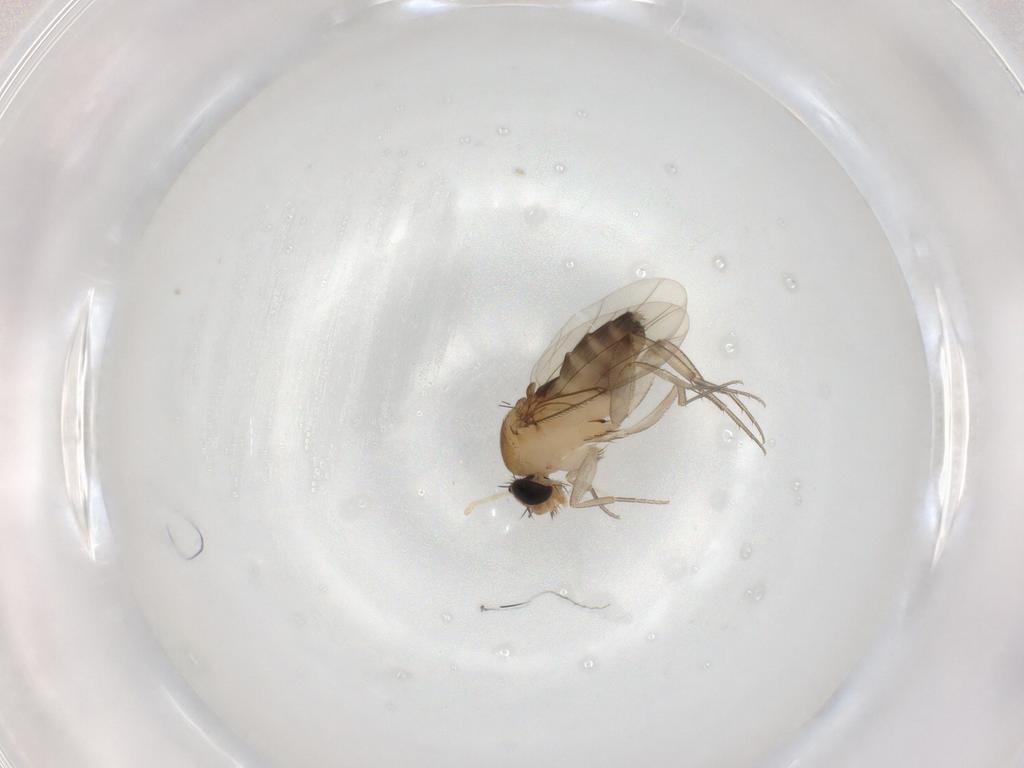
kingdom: Animalia
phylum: Arthropoda
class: Insecta
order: Diptera
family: Phoridae
